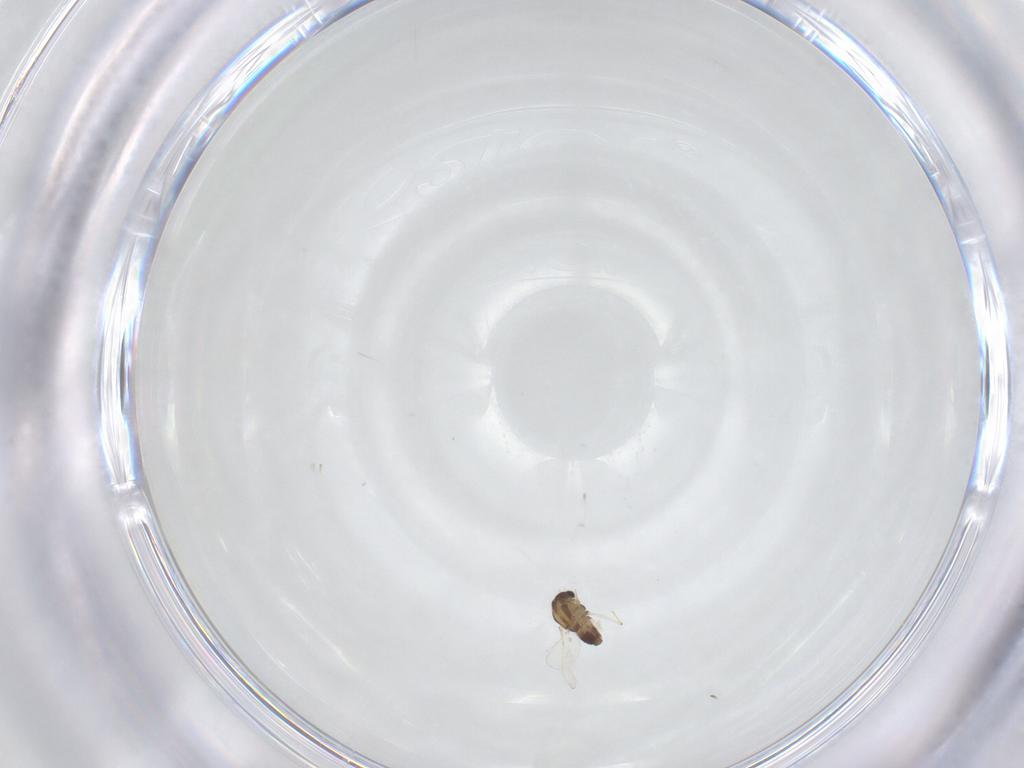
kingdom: Animalia
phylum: Arthropoda
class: Insecta
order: Diptera
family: Chironomidae
